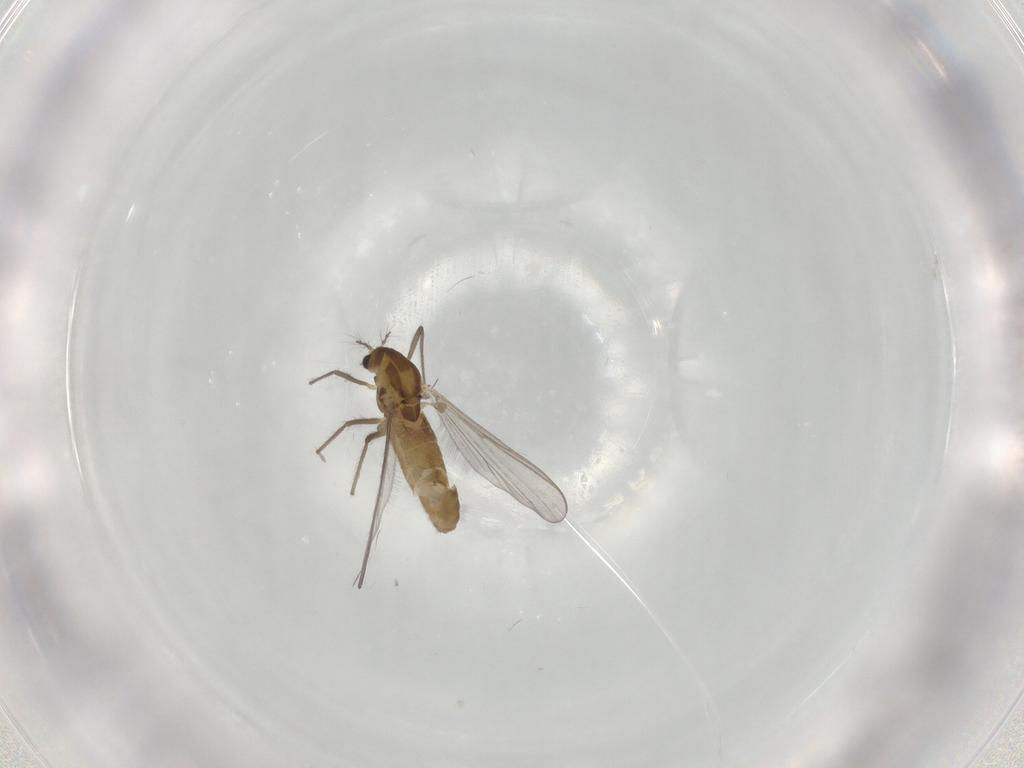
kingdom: Animalia
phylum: Arthropoda
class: Insecta
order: Diptera
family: Chironomidae
